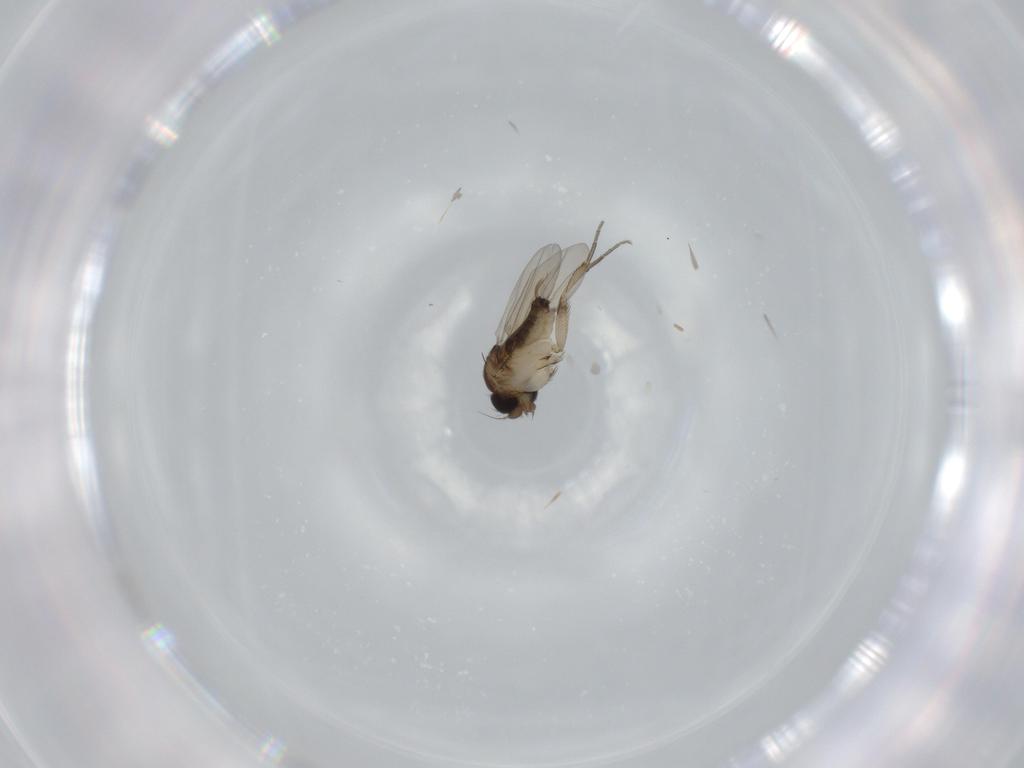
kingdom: Animalia
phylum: Arthropoda
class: Insecta
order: Diptera
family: Phoridae
